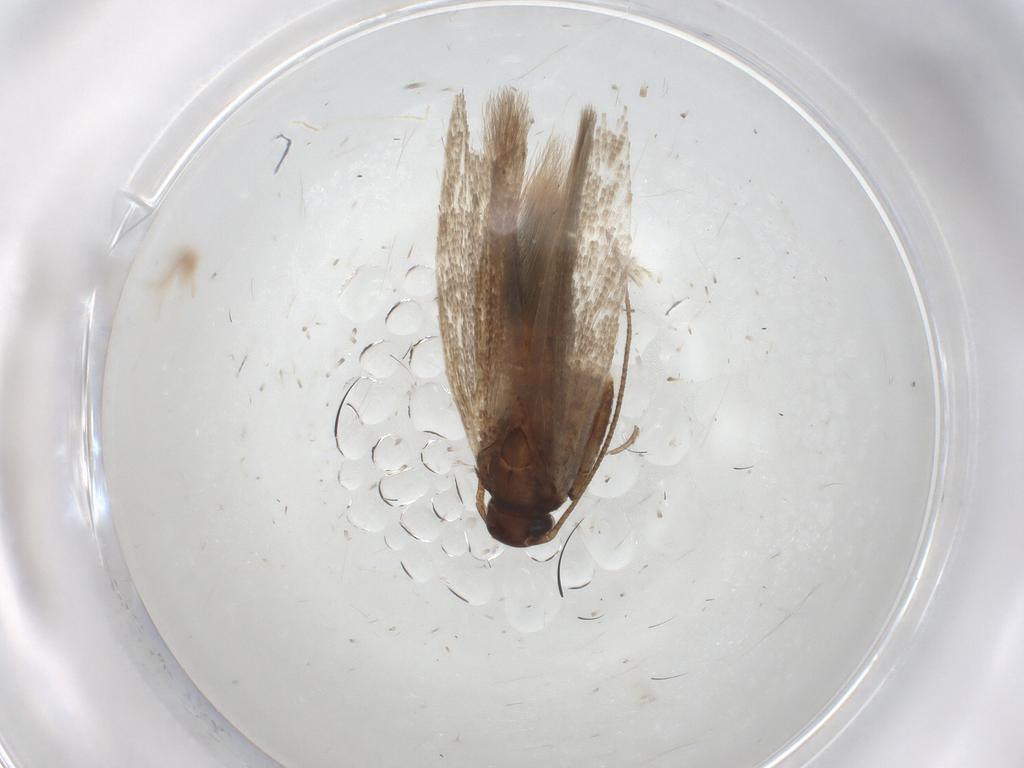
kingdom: Animalia
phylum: Arthropoda
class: Insecta
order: Lepidoptera
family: Gelechiidae
